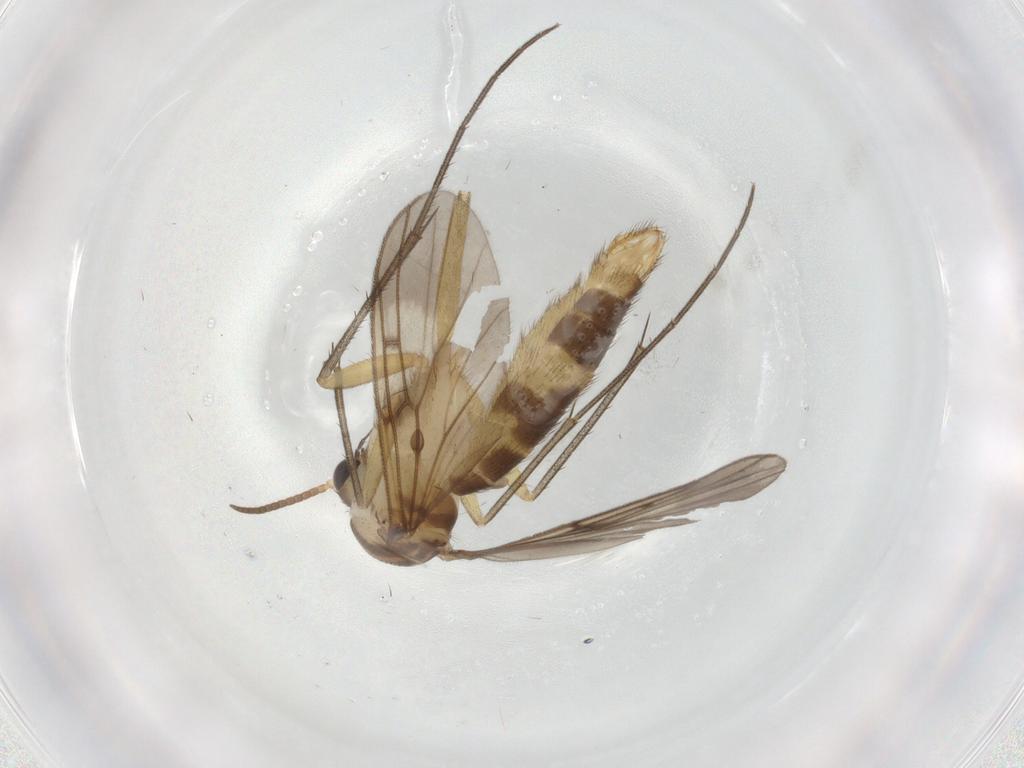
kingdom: Animalia
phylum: Arthropoda
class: Insecta
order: Diptera
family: Mycetophilidae
